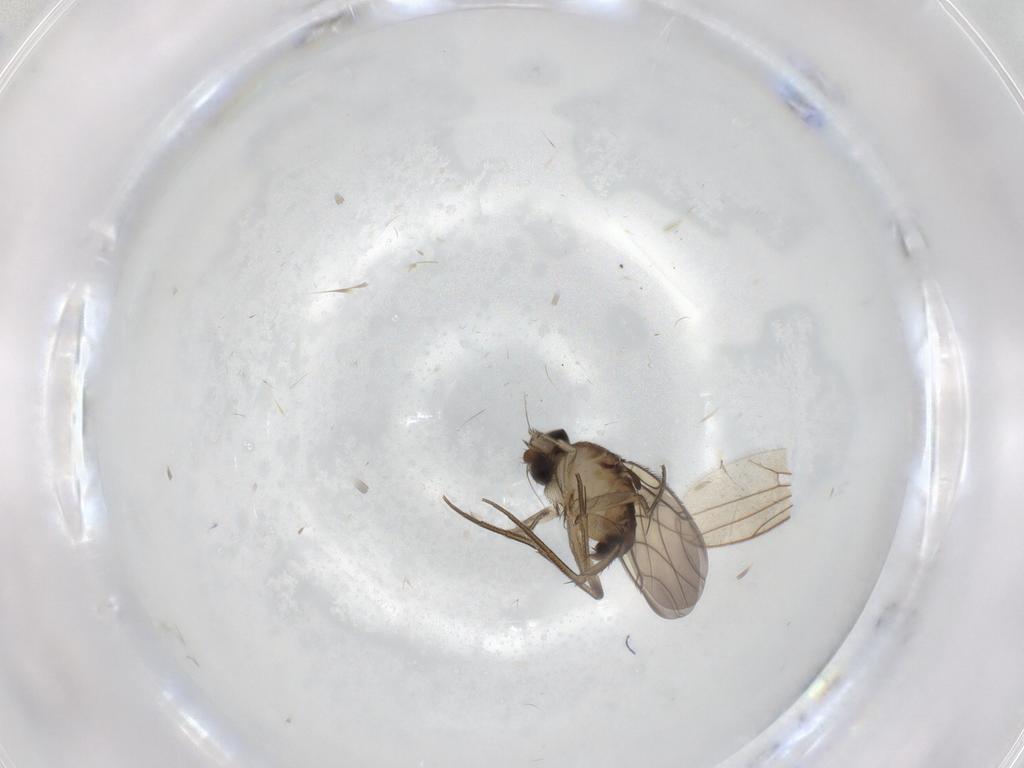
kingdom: Animalia
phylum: Arthropoda
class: Insecta
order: Diptera
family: Phoridae
